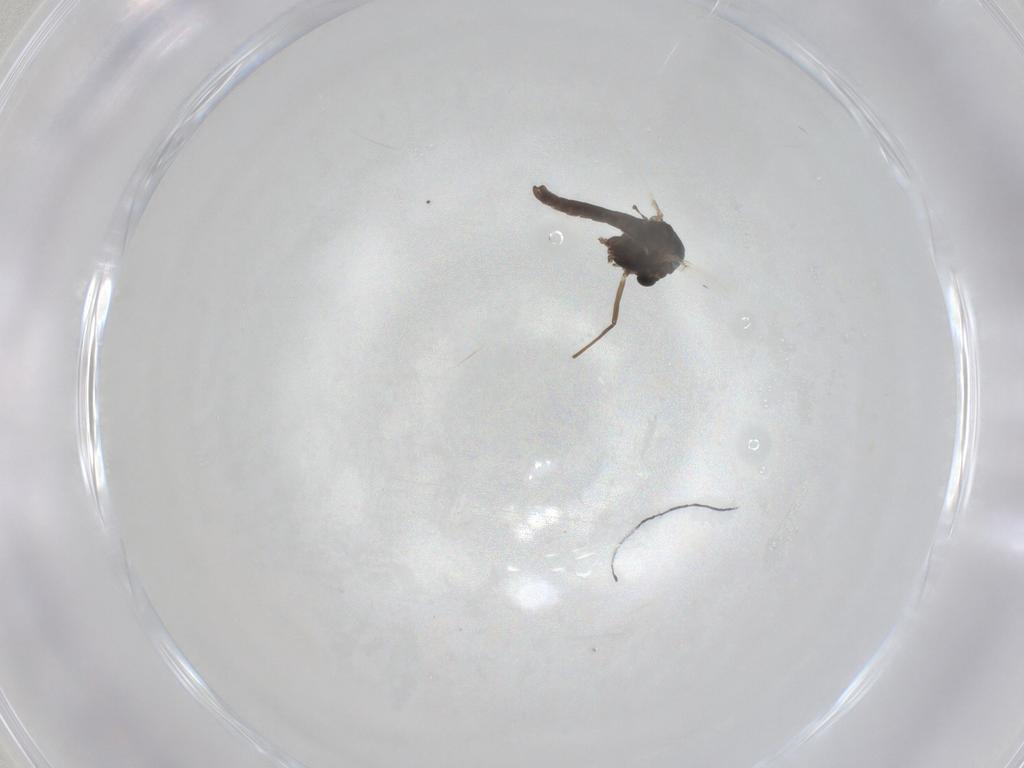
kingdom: Animalia
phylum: Arthropoda
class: Insecta
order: Diptera
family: Chironomidae
